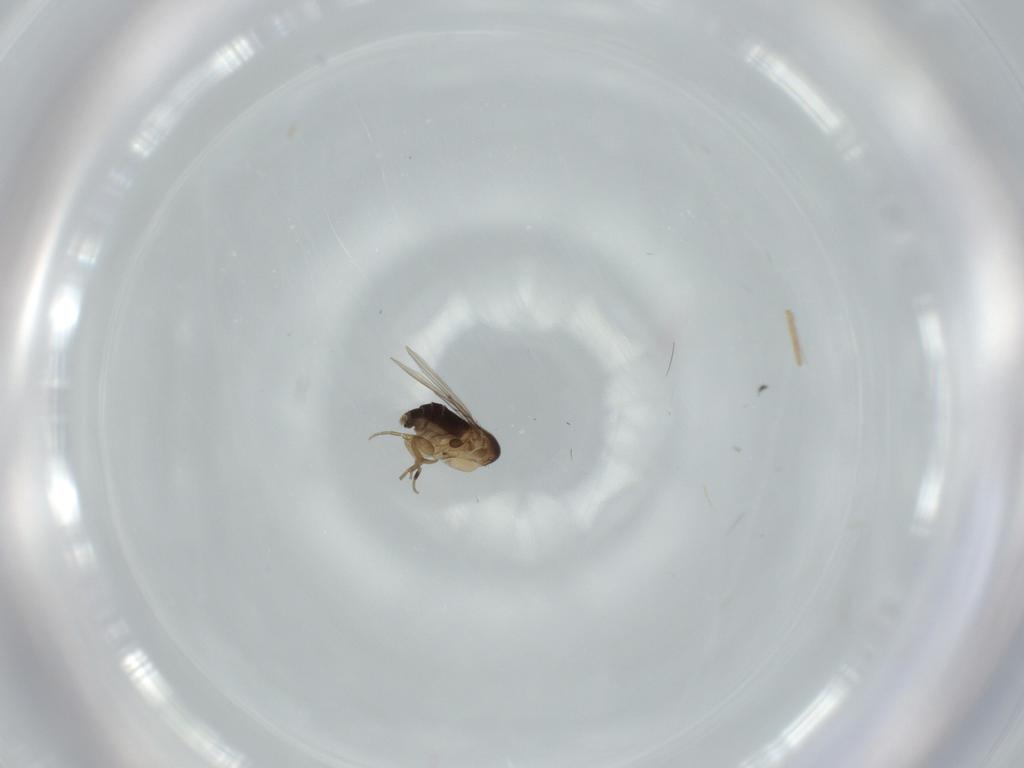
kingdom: Animalia
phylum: Arthropoda
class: Insecta
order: Diptera
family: Phoridae
